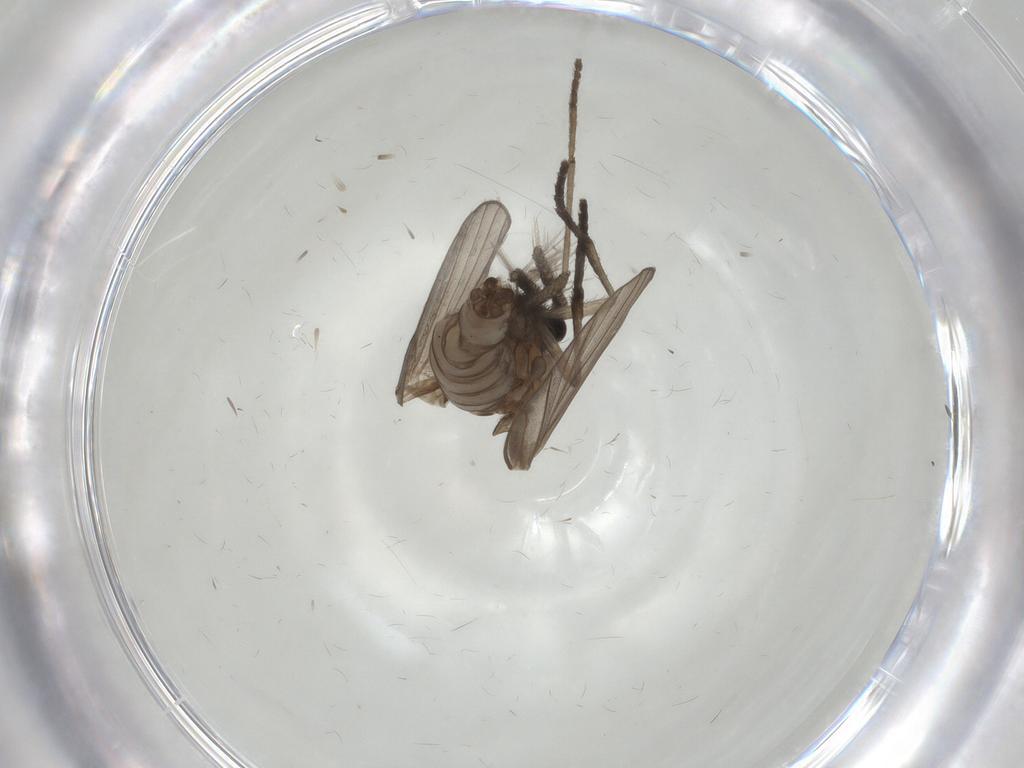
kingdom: Animalia
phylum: Arthropoda
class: Insecta
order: Diptera
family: Psychodidae
